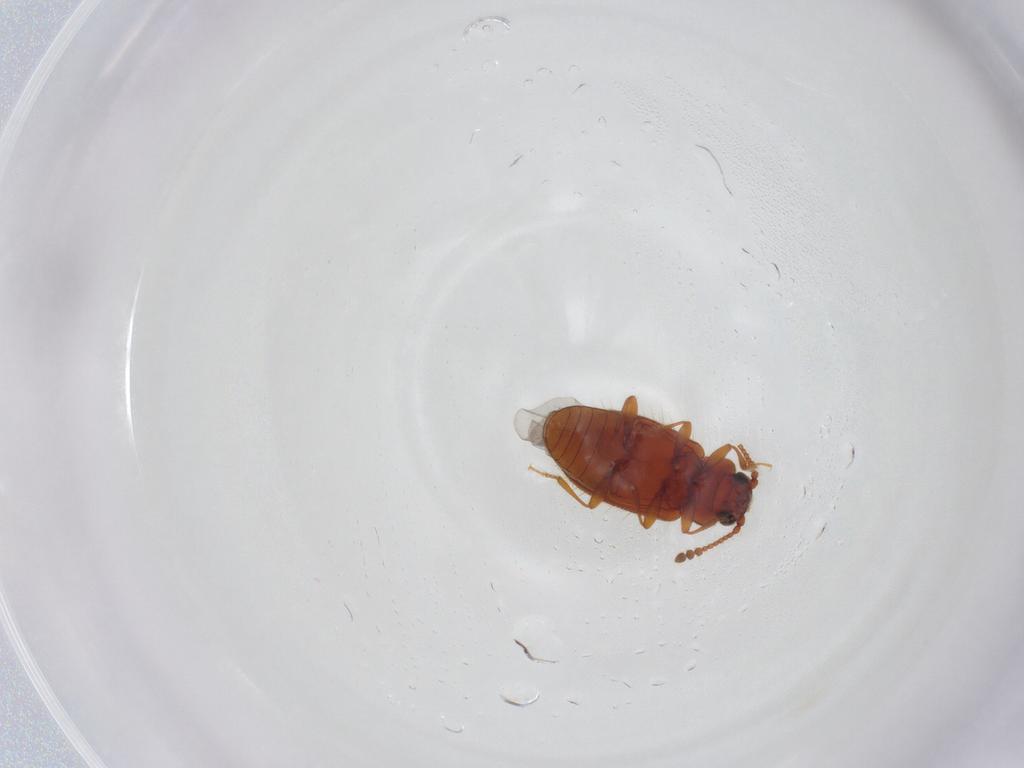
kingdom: Animalia
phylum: Arthropoda
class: Insecta
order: Coleoptera
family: Cryptophagidae
